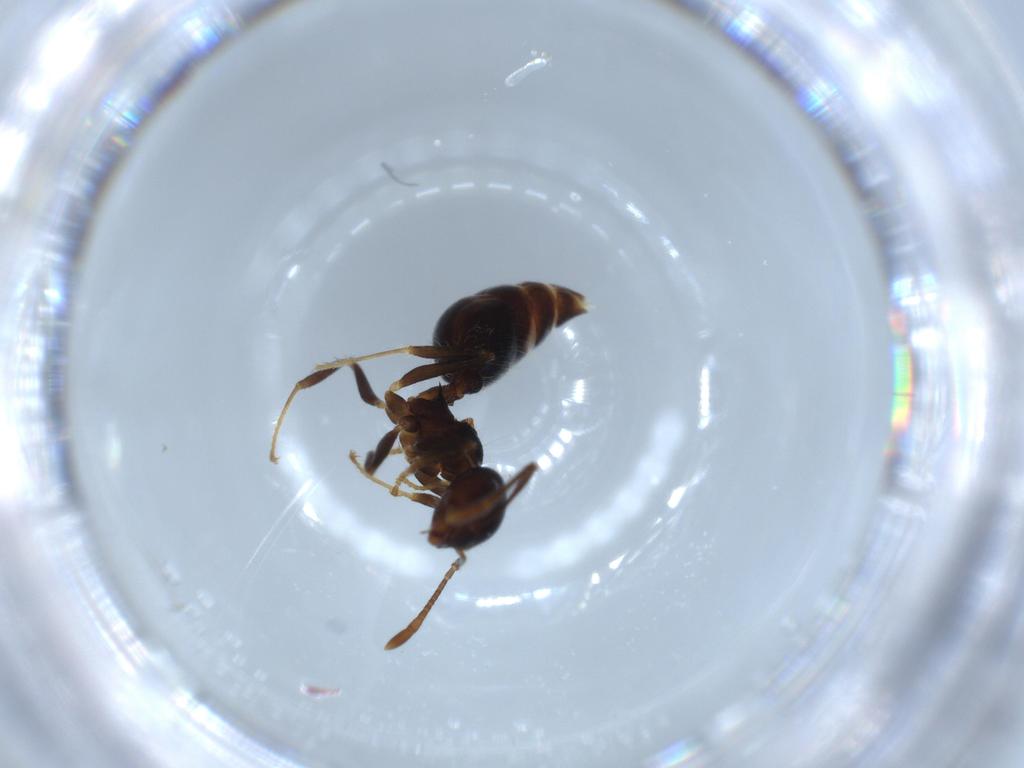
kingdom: Animalia
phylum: Arthropoda
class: Insecta
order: Hymenoptera
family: Formicidae
